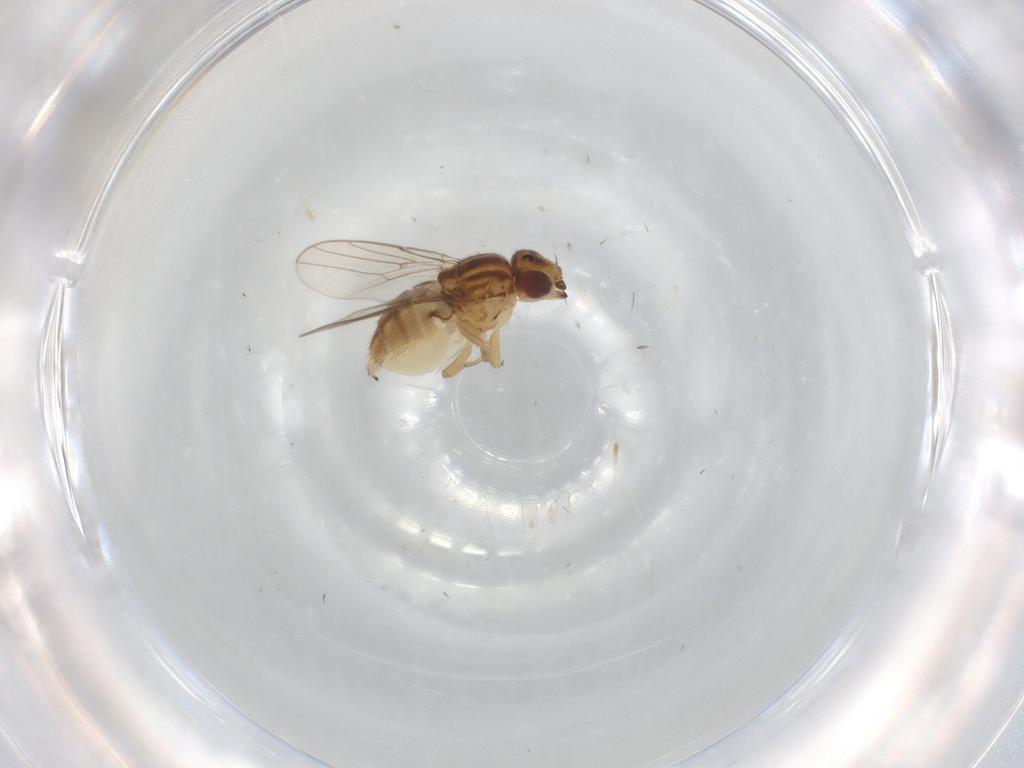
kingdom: Animalia
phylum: Arthropoda
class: Insecta
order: Diptera
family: Chloropidae
